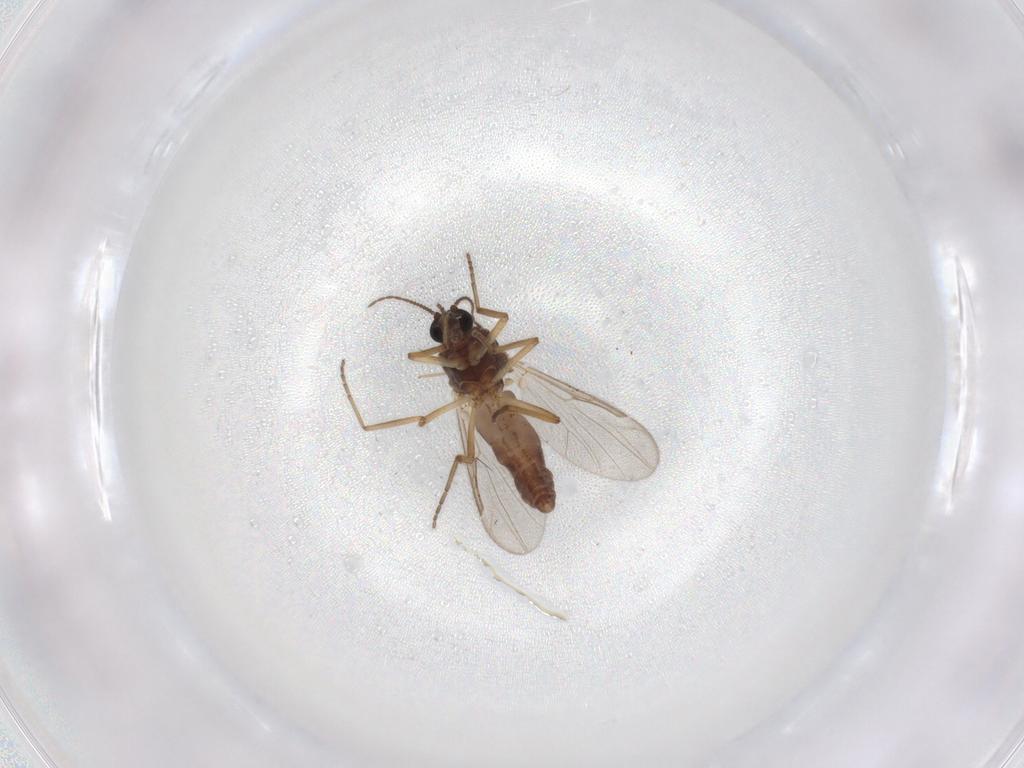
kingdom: Animalia
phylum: Arthropoda
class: Insecta
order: Diptera
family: Ceratopogonidae
